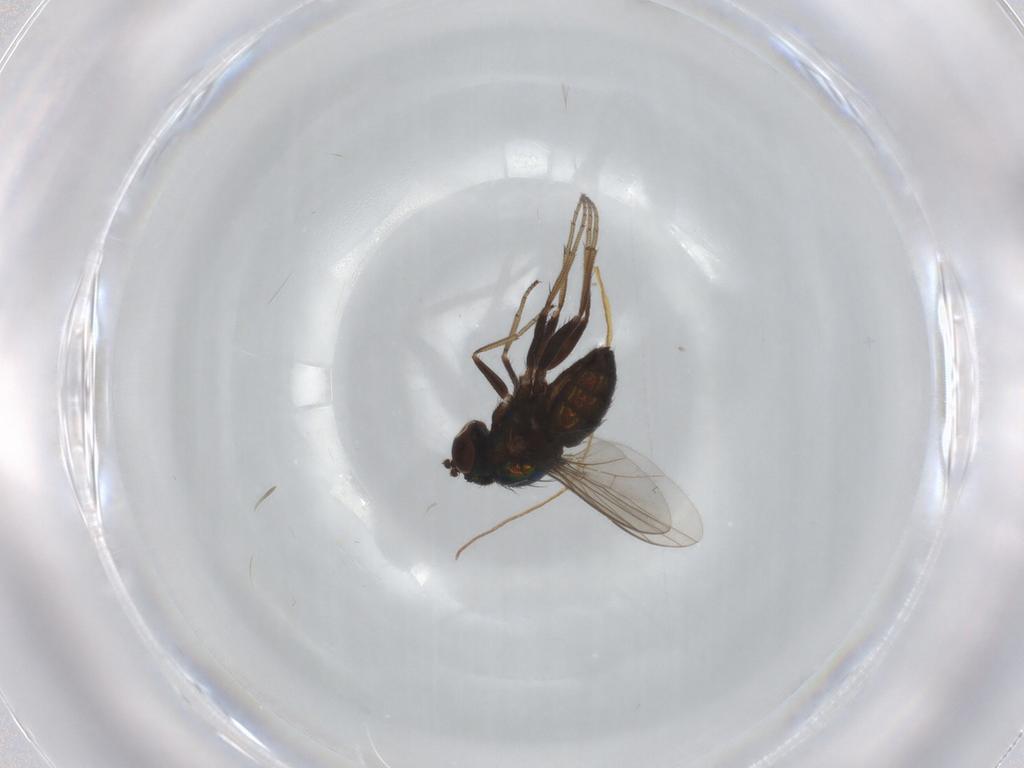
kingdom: Animalia
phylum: Arthropoda
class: Insecta
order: Diptera
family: Dolichopodidae
